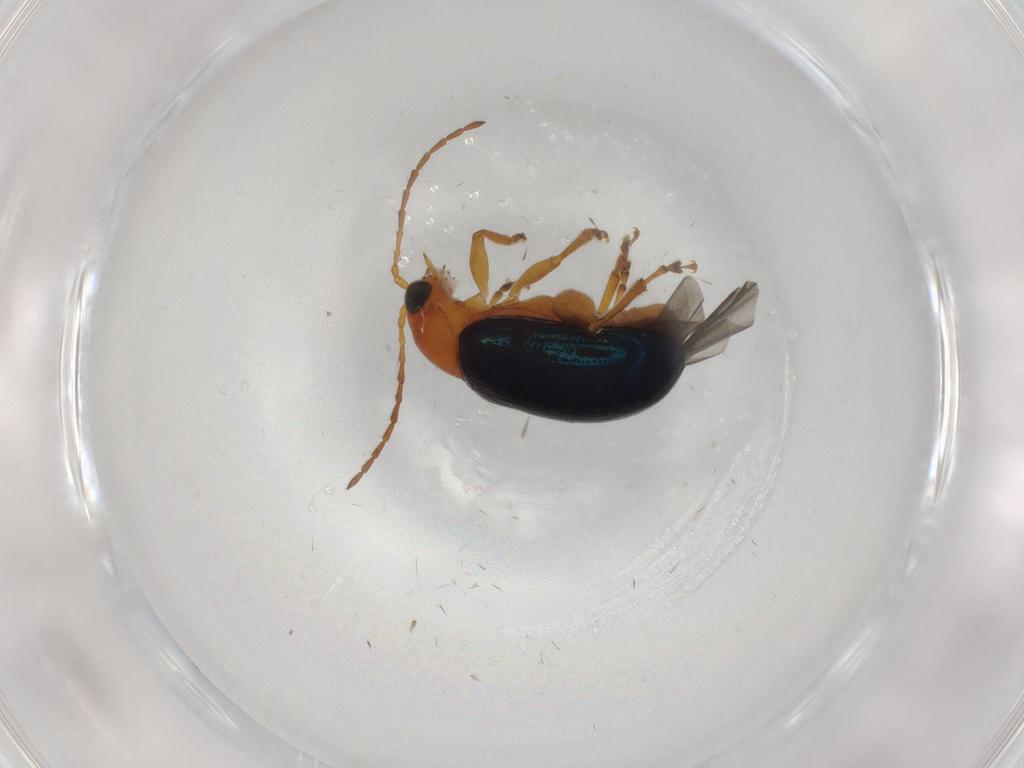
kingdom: Animalia
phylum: Arthropoda
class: Insecta
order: Coleoptera
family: Chrysomelidae
